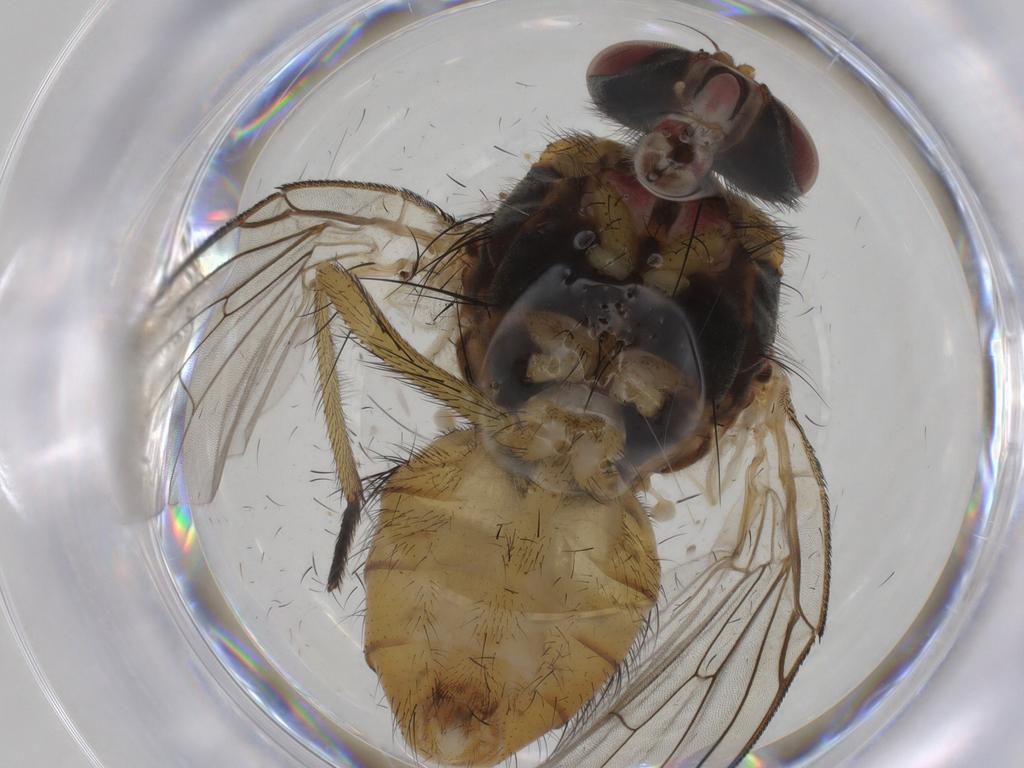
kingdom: Animalia
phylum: Arthropoda
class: Insecta
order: Diptera
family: Muscidae
